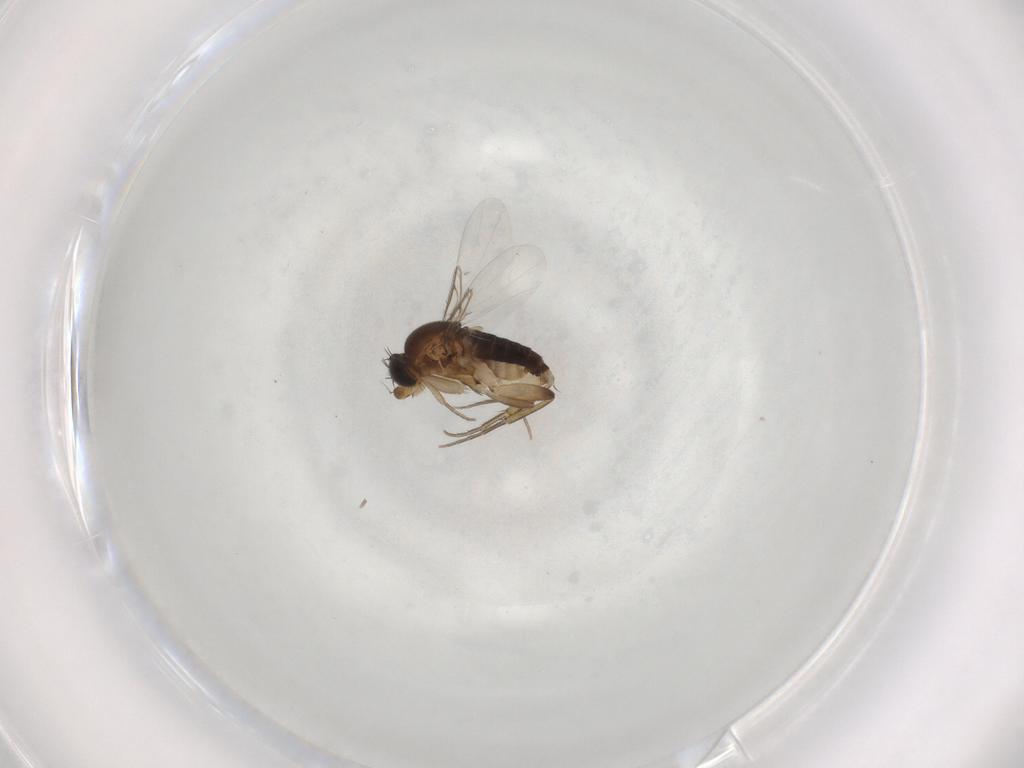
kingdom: Animalia
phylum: Arthropoda
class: Insecta
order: Diptera
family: Phoridae
